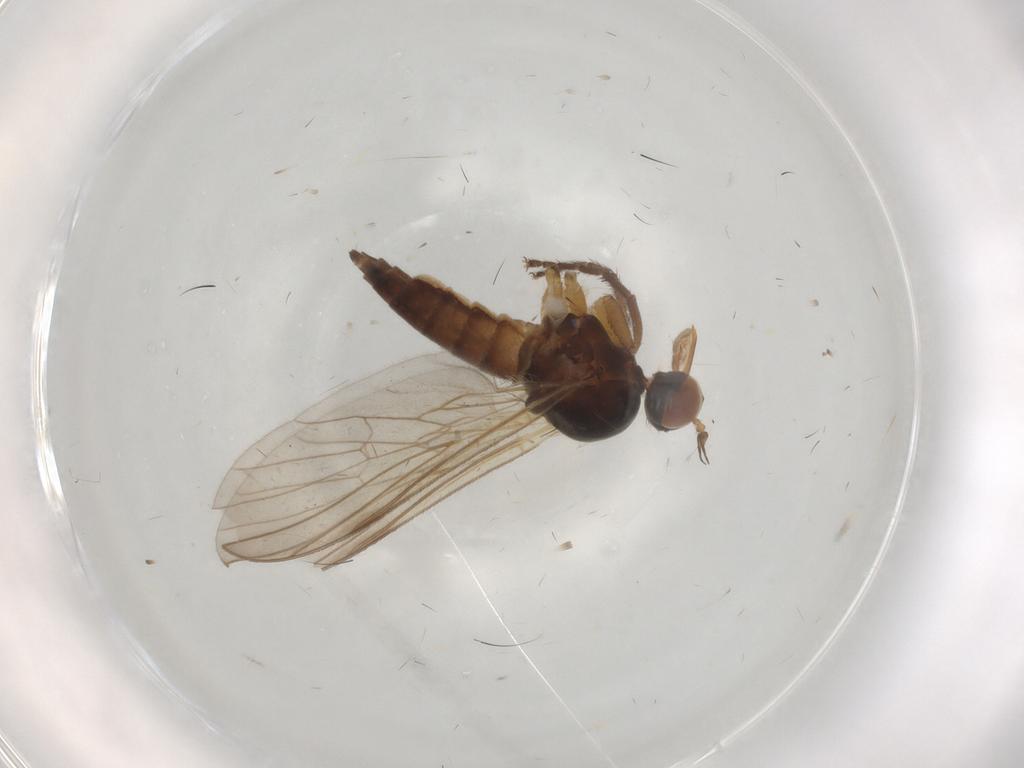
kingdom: Animalia
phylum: Arthropoda
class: Insecta
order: Diptera
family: Empididae
